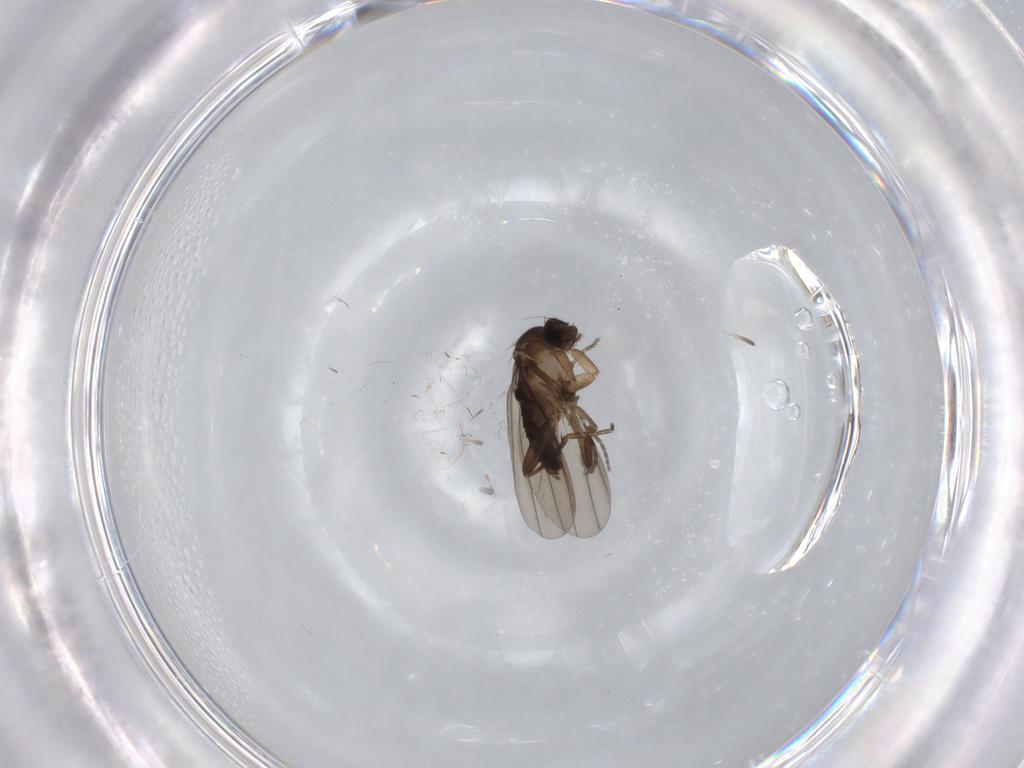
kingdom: Animalia
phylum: Arthropoda
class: Insecta
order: Diptera
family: Phoridae
